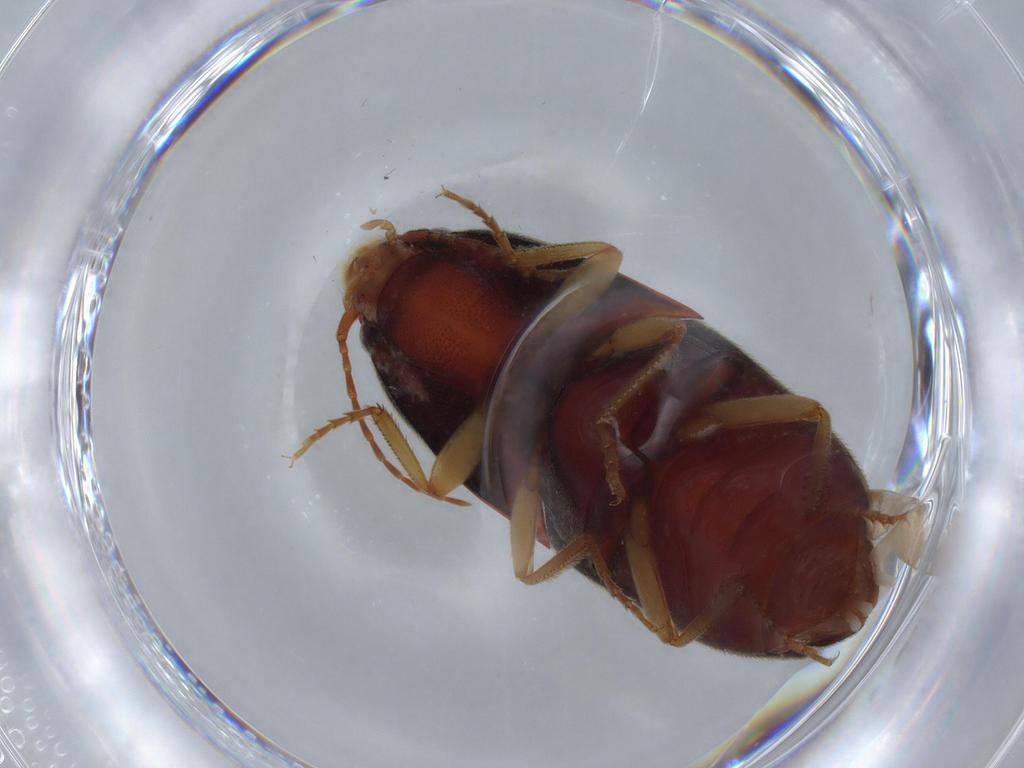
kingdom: Animalia
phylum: Arthropoda
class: Insecta
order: Coleoptera
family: Elateridae
